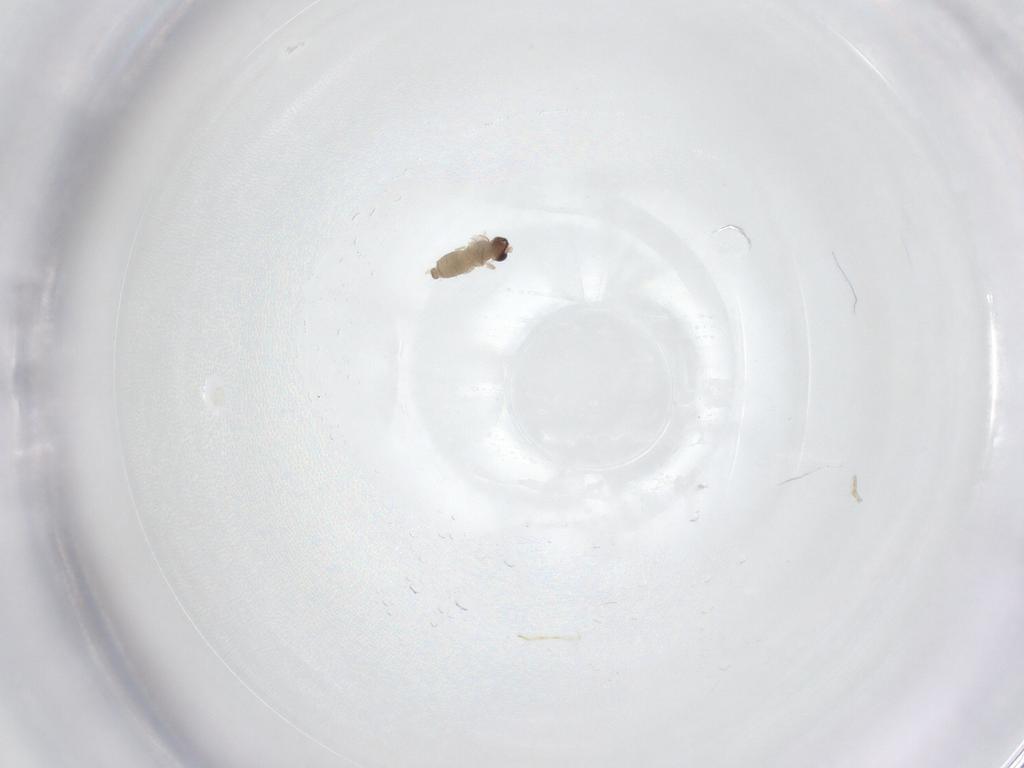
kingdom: Animalia
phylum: Arthropoda
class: Insecta
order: Diptera
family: Cecidomyiidae
